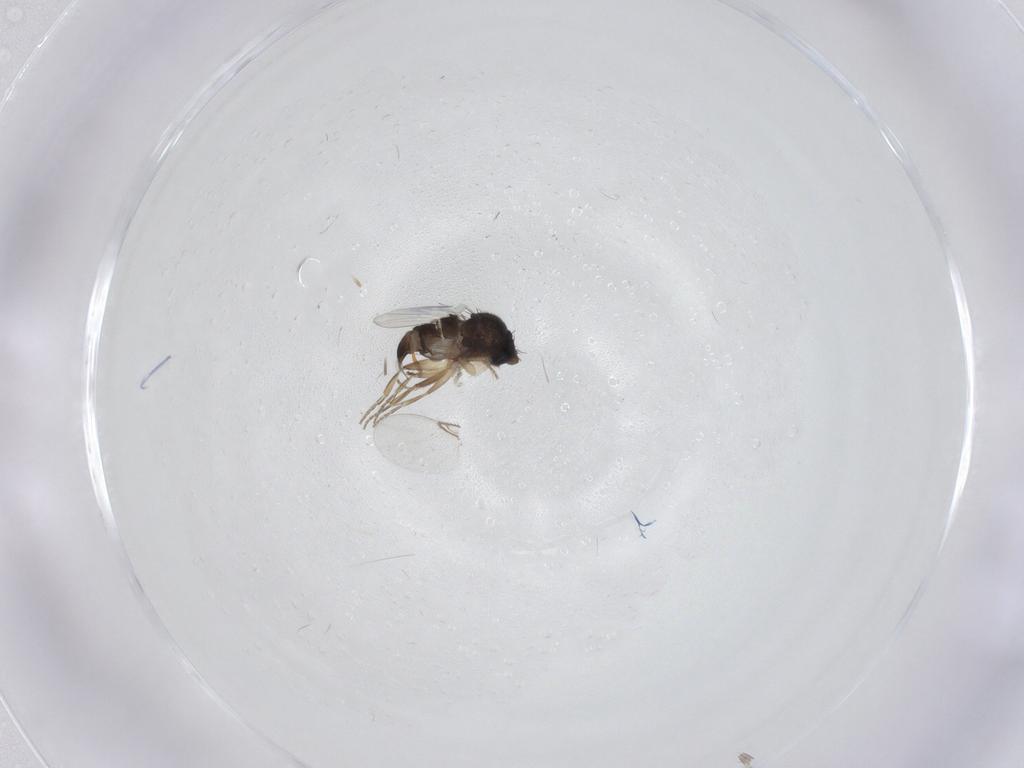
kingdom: Animalia
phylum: Arthropoda
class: Insecta
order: Diptera
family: Phoridae
